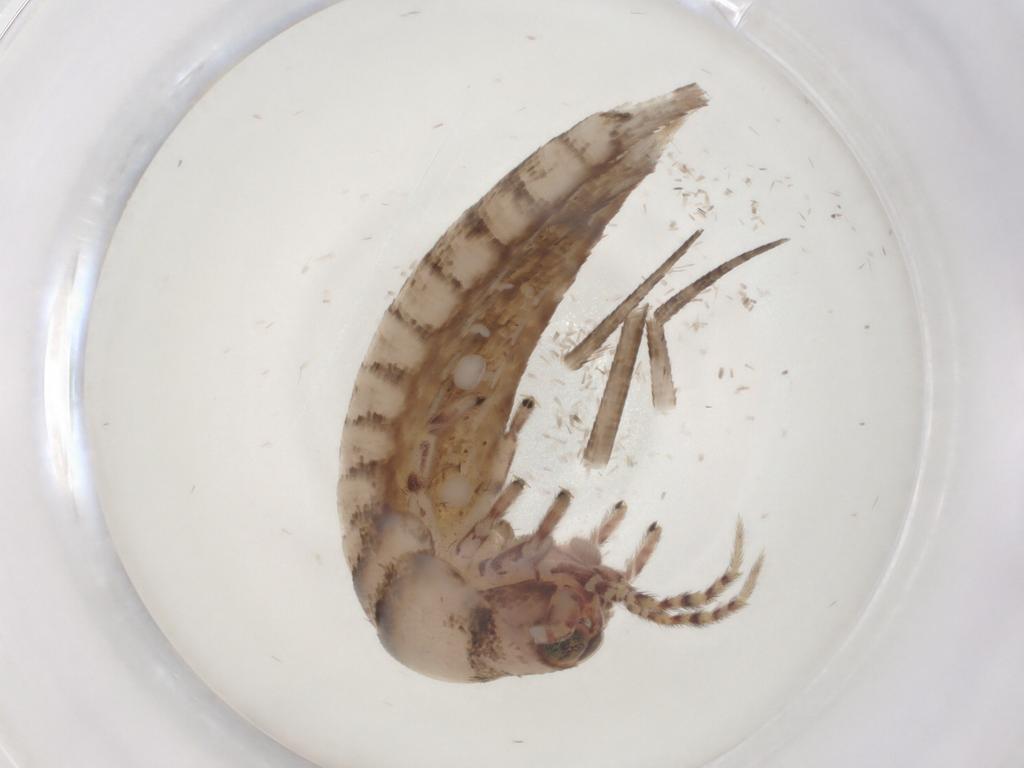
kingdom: Animalia
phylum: Arthropoda
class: Insecta
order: Archaeognatha
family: Machilidae
